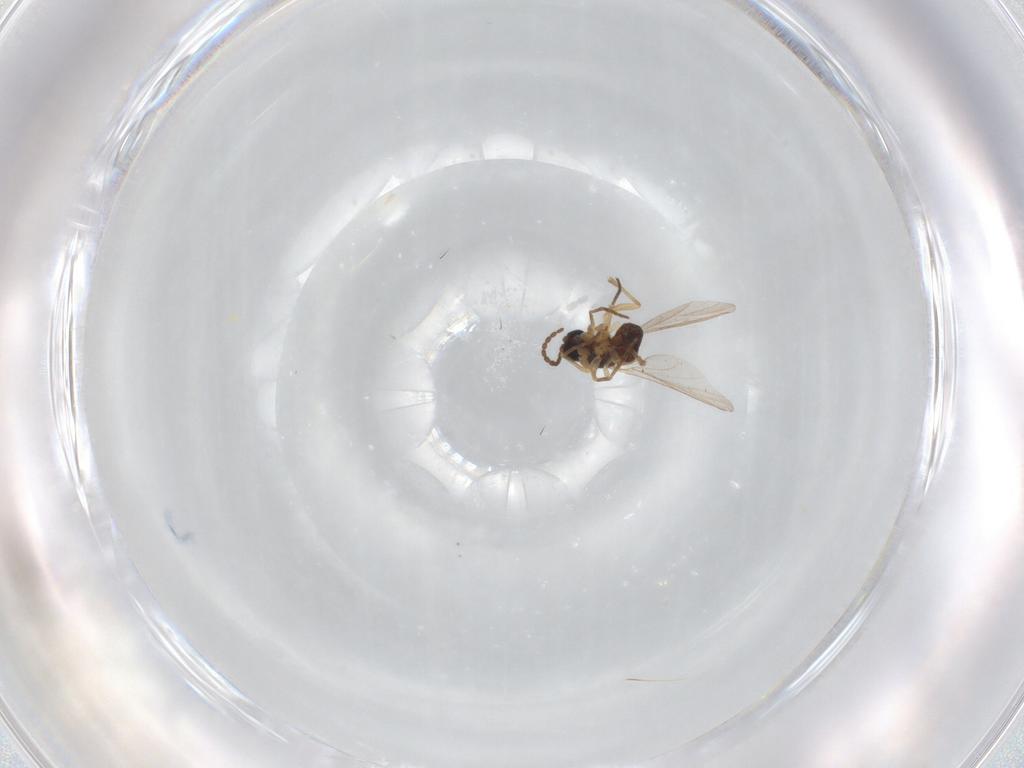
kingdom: Animalia
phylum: Arthropoda
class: Insecta
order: Diptera
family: Sciaridae
